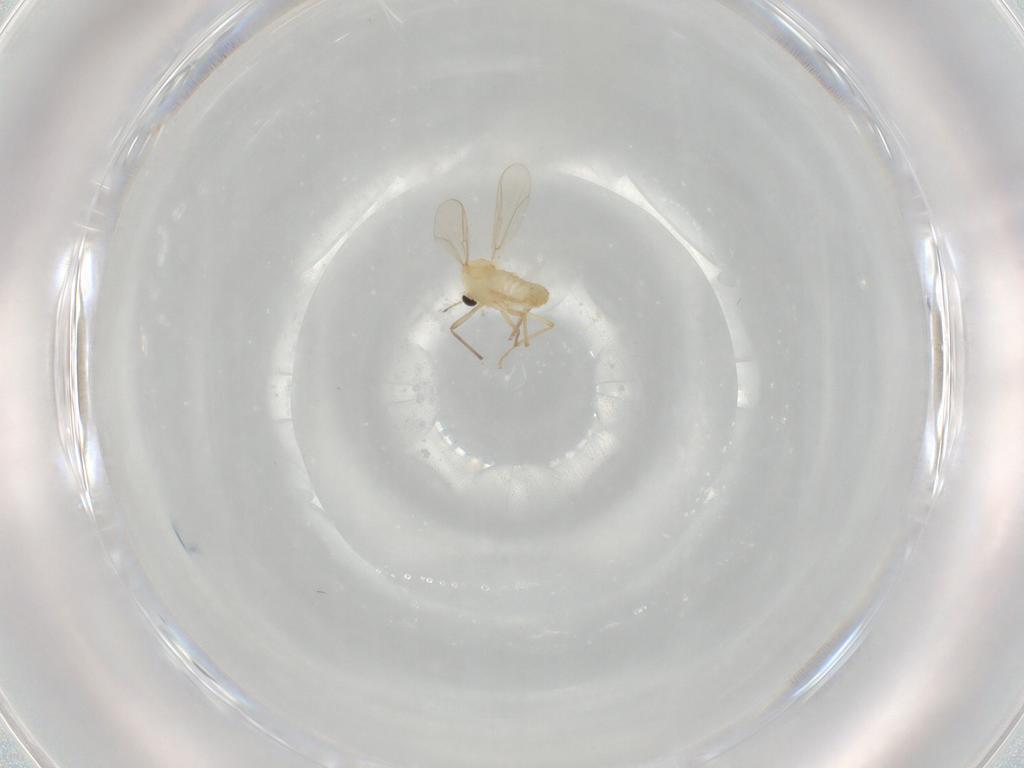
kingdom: Animalia
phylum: Arthropoda
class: Insecta
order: Diptera
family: Chironomidae
